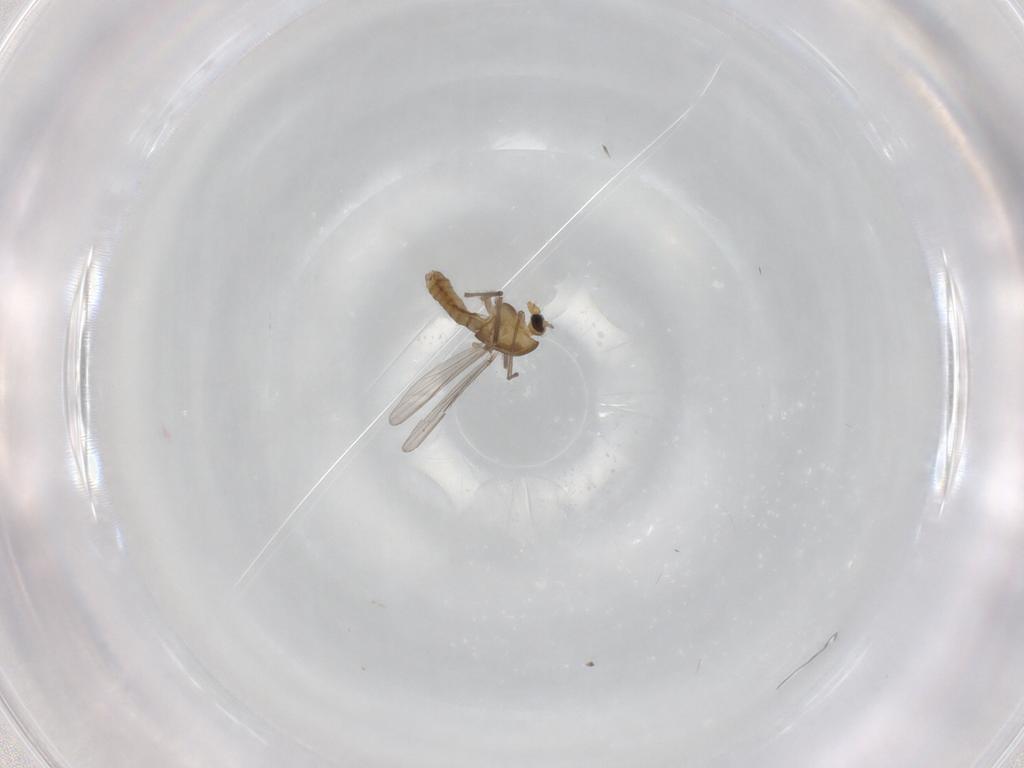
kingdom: Animalia
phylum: Arthropoda
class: Insecta
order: Diptera
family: Chironomidae
